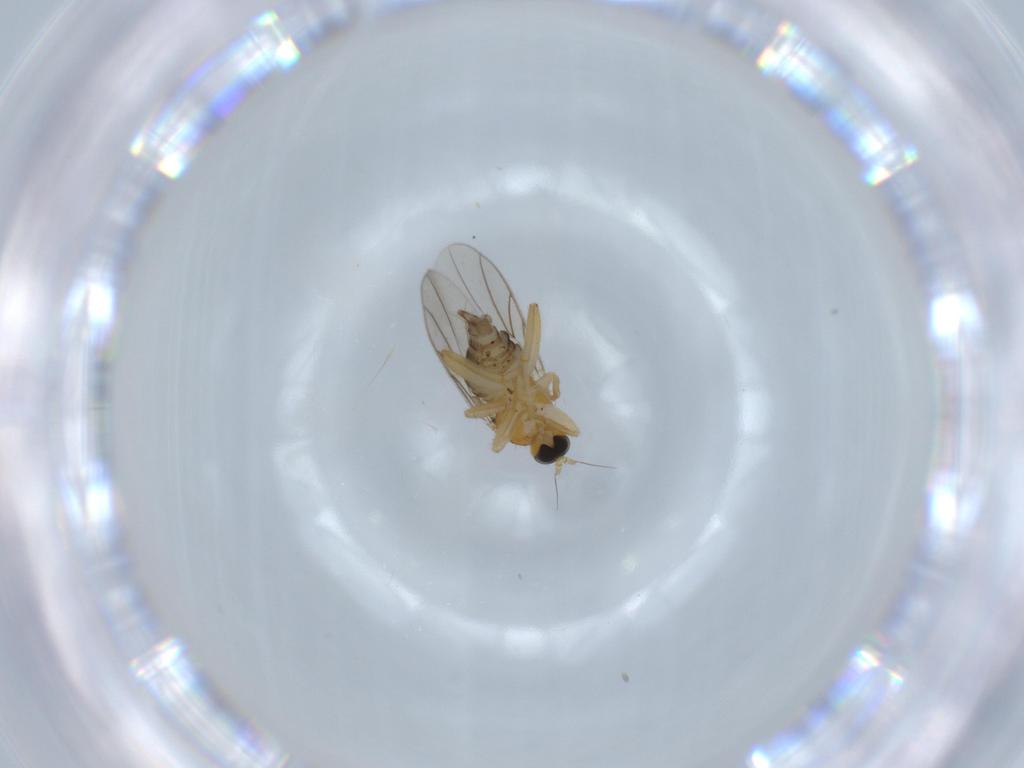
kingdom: Animalia
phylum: Arthropoda
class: Insecta
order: Diptera
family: Hybotidae
